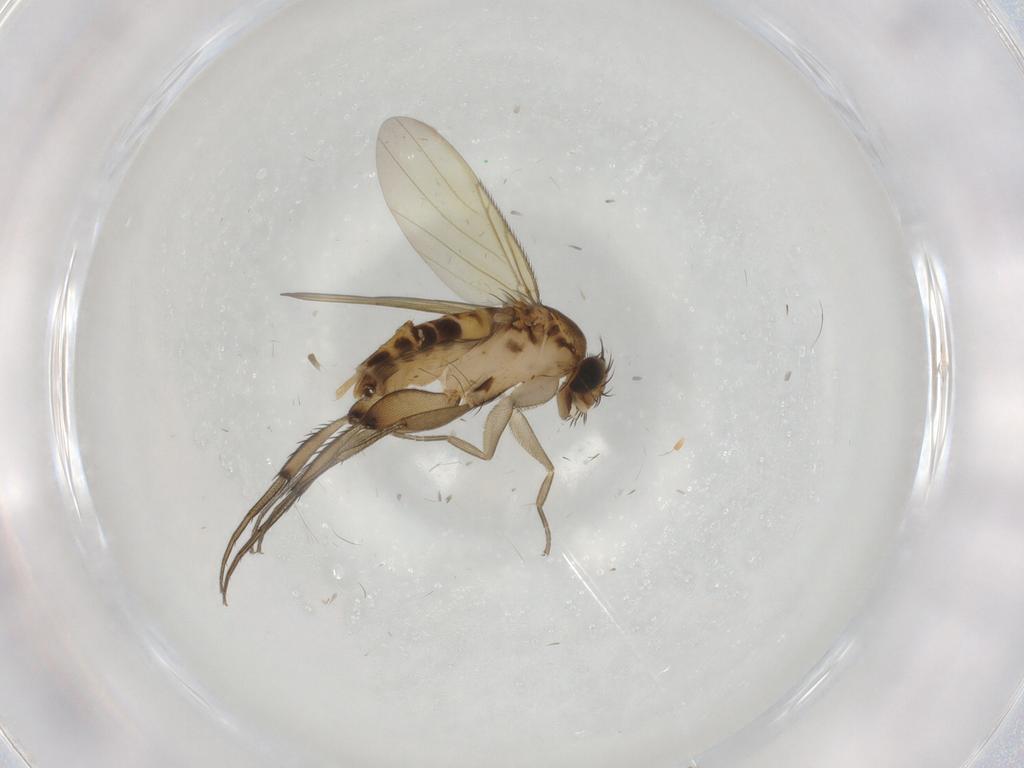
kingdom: Animalia
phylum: Arthropoda
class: Insecta
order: Diptera
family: Phoridae
